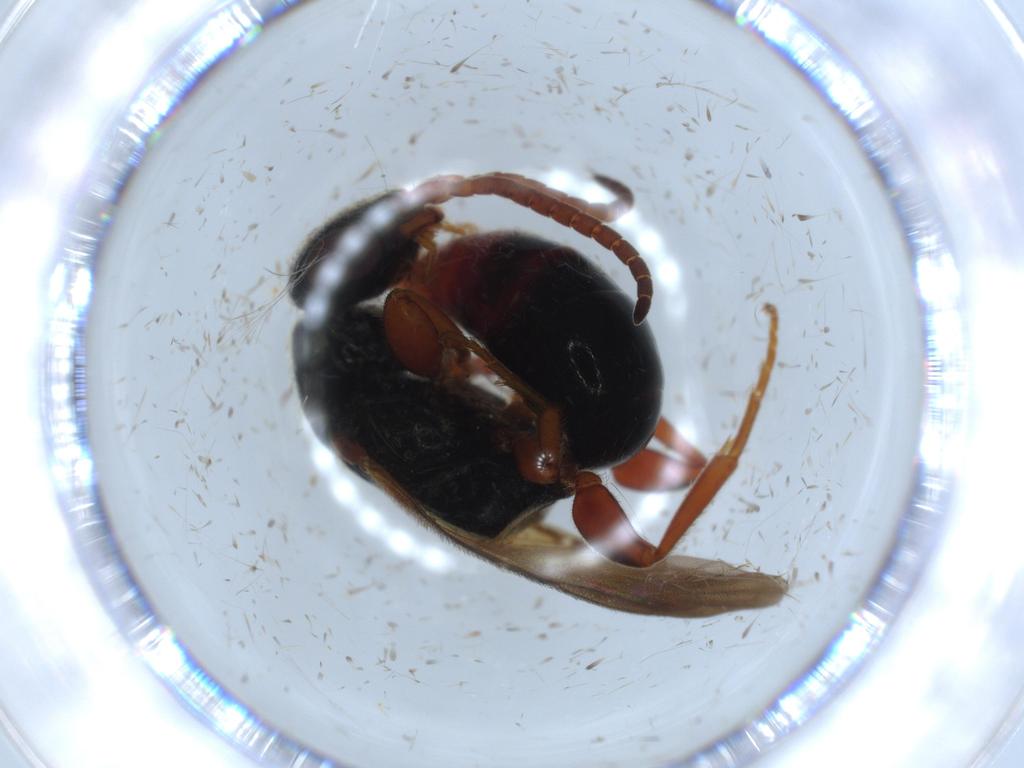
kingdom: Animalia
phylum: Arthropoda
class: Insecta
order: Hymenoptera
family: Bethylidae
